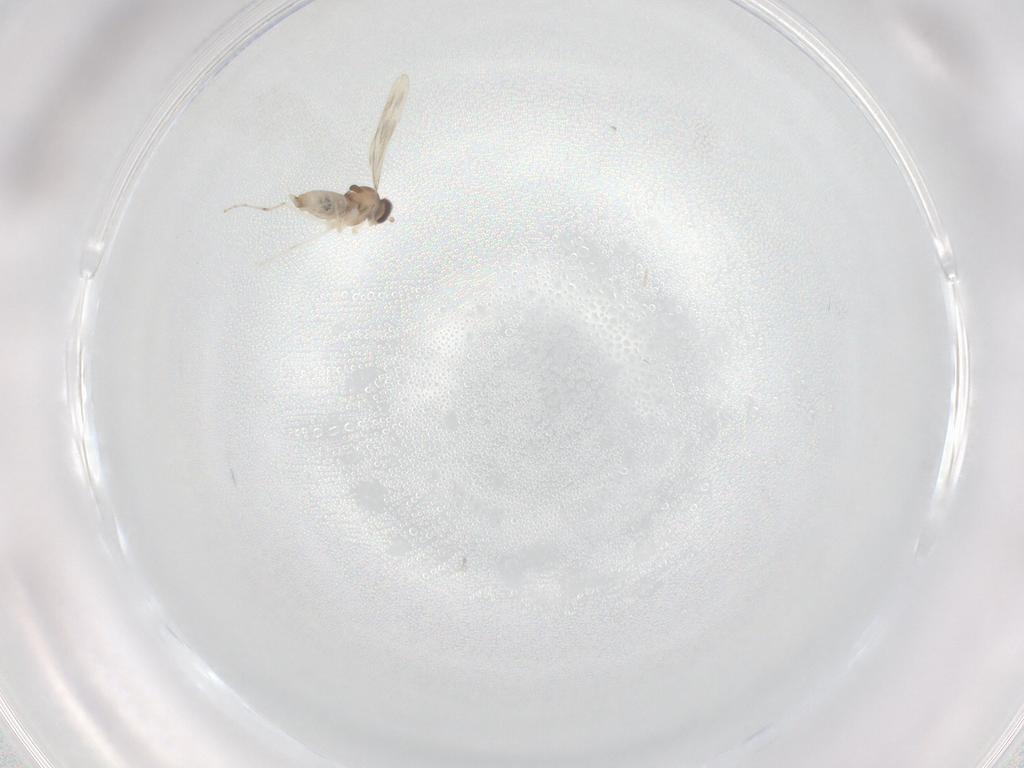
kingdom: Animalia
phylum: Arthropoda
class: Insecta
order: Diptera
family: Cecidomyiidae
